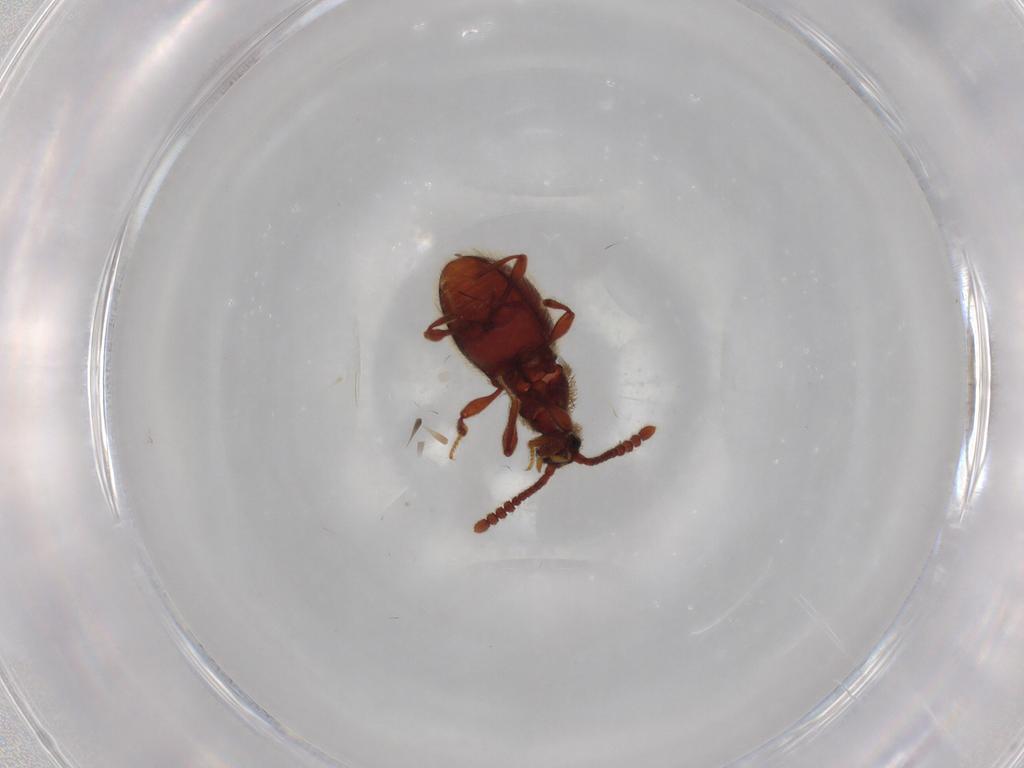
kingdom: Animalia
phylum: Arthropoda
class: Insecta
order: Coleoptera
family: Staphylinidae
